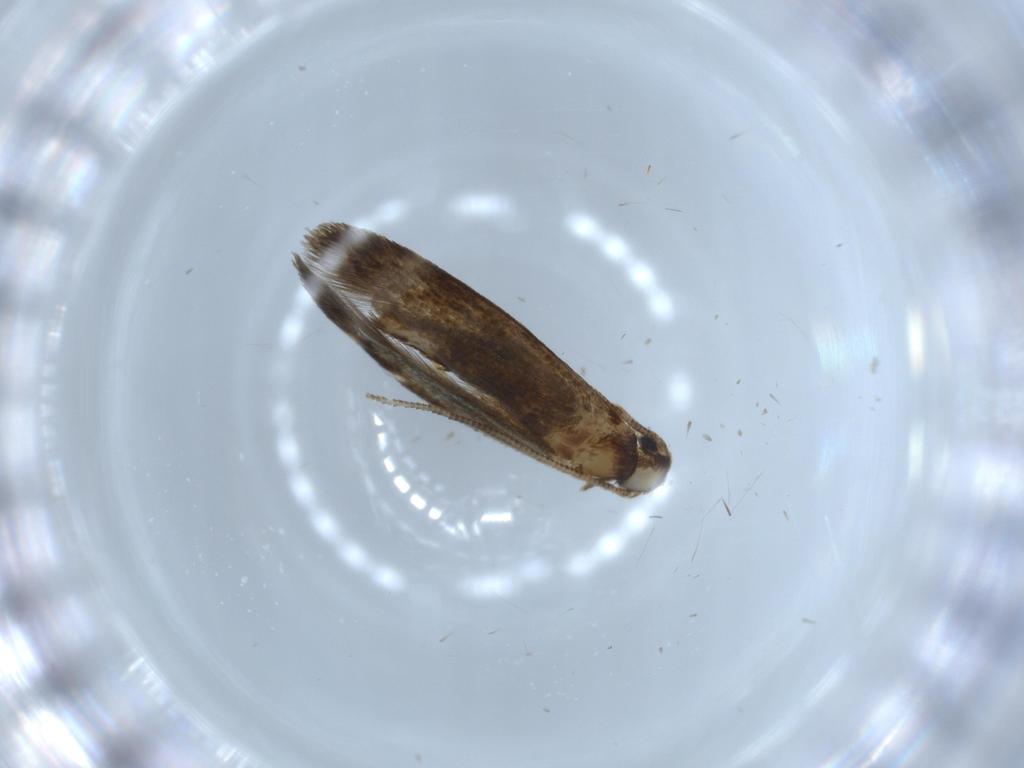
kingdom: Animalia
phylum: Arthropoda
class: Insecta
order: Lepidoptera
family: Tineidae
